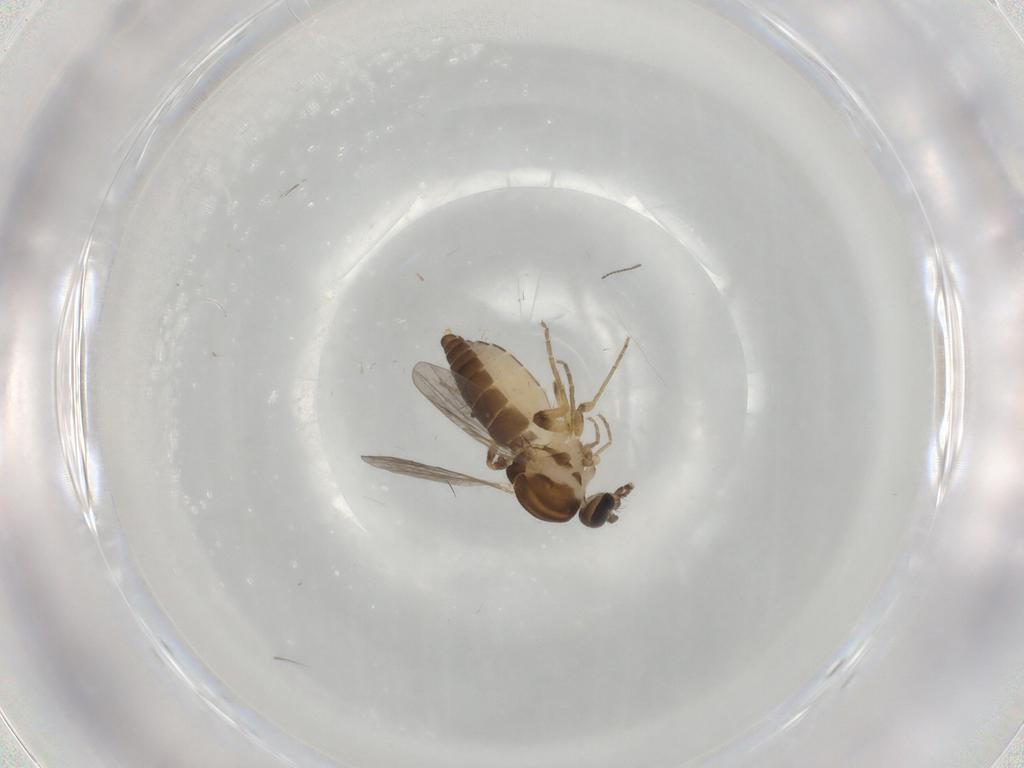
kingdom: Animalia
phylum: Arthropoda
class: Insecta
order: Diptera
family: Ceratopogonidae
